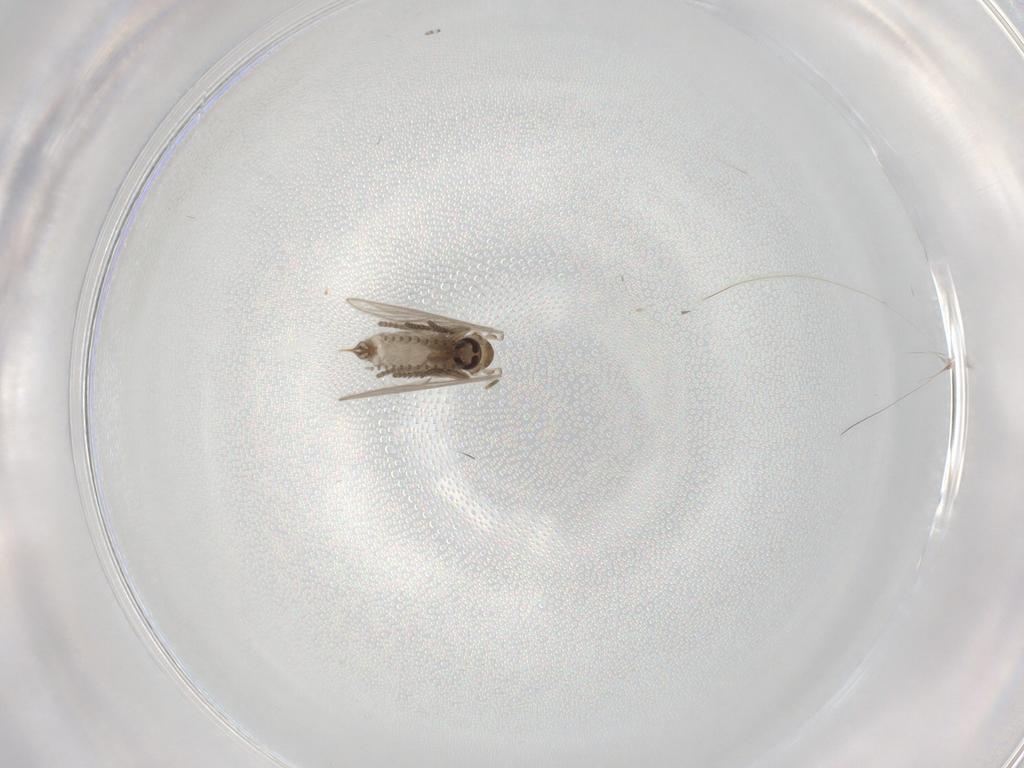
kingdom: Animalia
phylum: Arthropoda
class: Insecta
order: Diptera
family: Psychodidae
